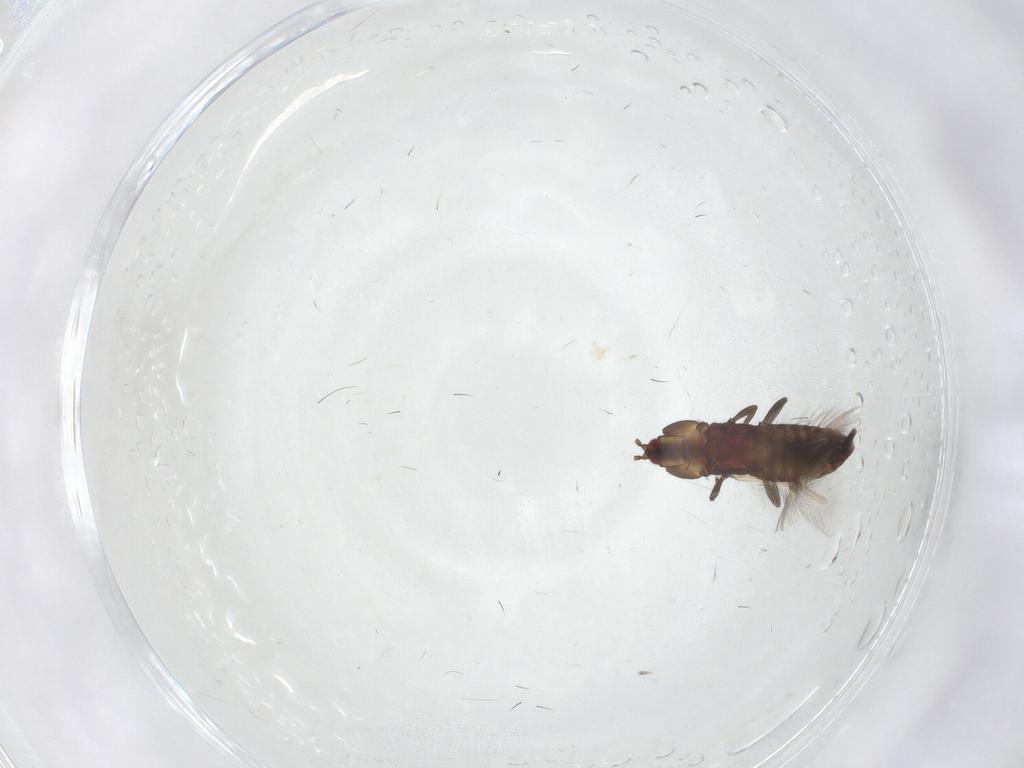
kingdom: Animalia
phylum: Arthropoda
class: Insecta
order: Thysanoptera
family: Phlaeothripidae
